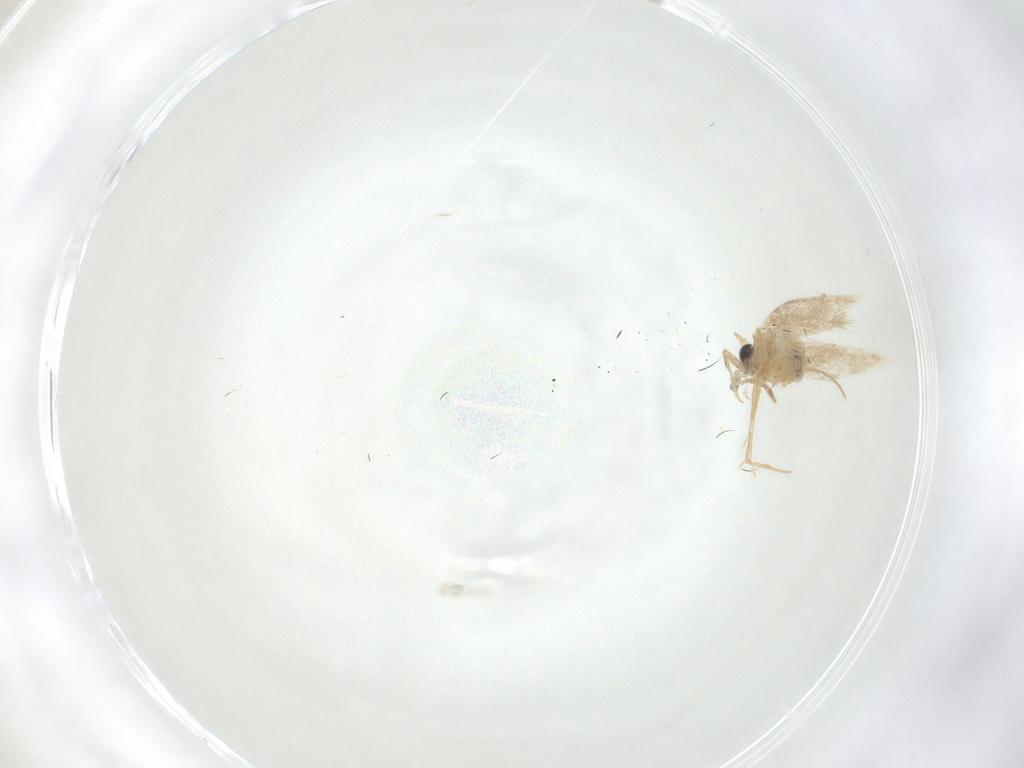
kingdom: Animalia
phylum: Arthropoda
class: Insecta
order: Lepidoptera
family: Nepticulidae
